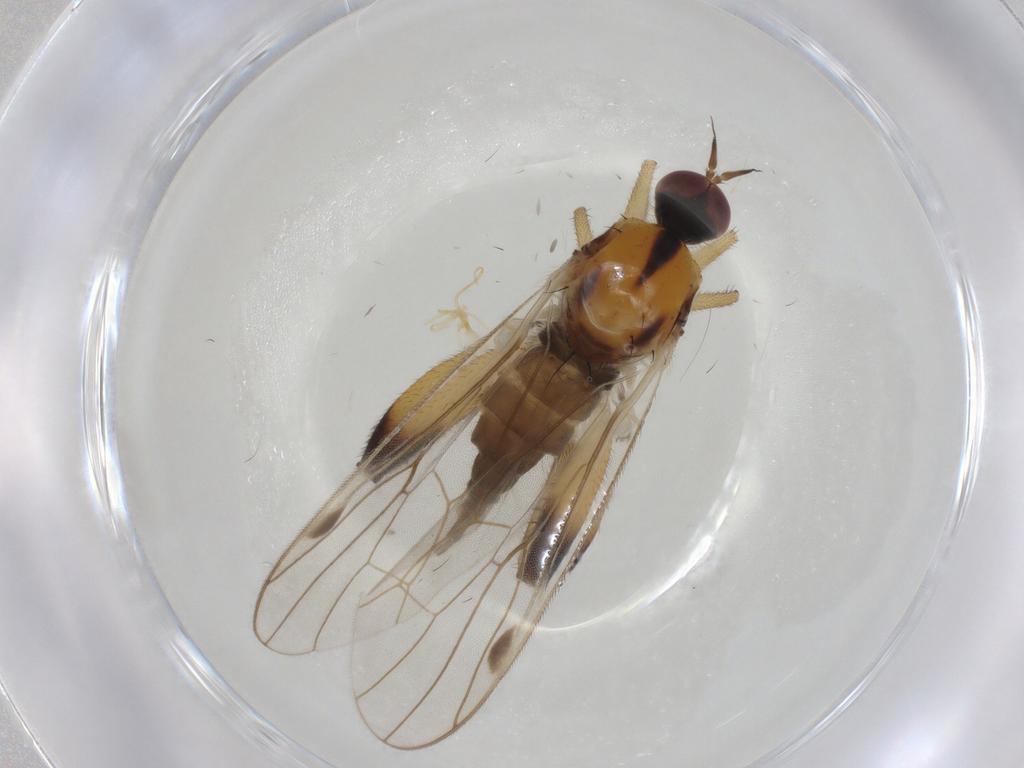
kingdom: Animalia
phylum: Arthropoda
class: Insecta
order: Diptera
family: Hybotidae
